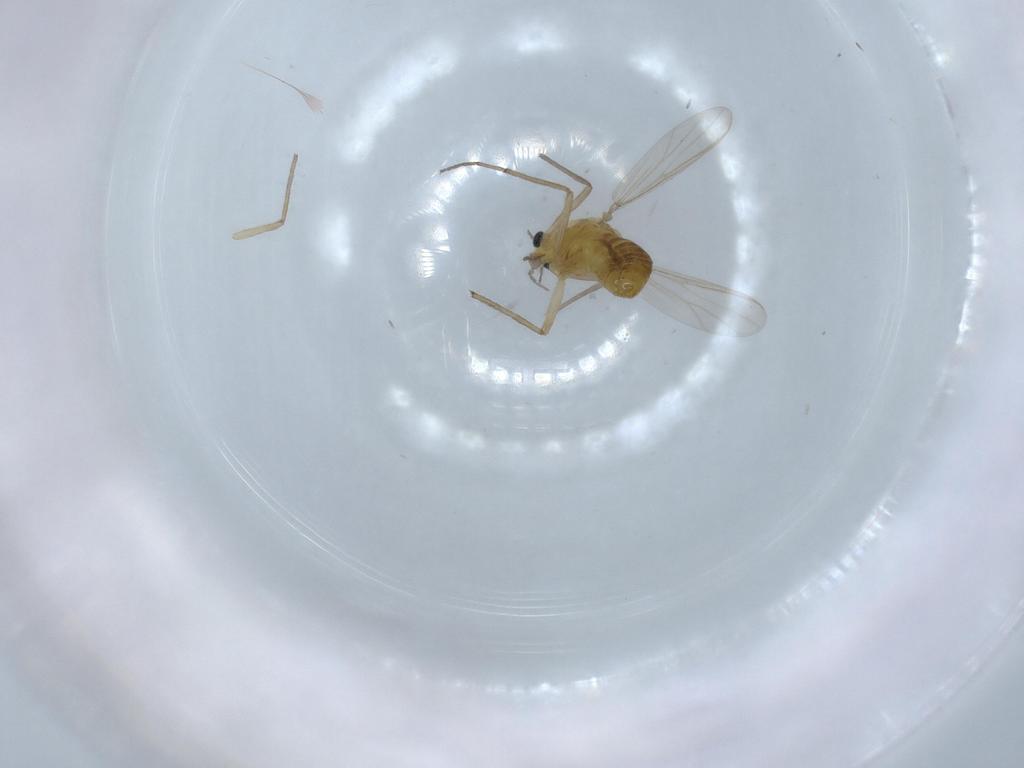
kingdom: Animalia
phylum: Arthropoda
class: Insecta
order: Diptera
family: Chironomidae
